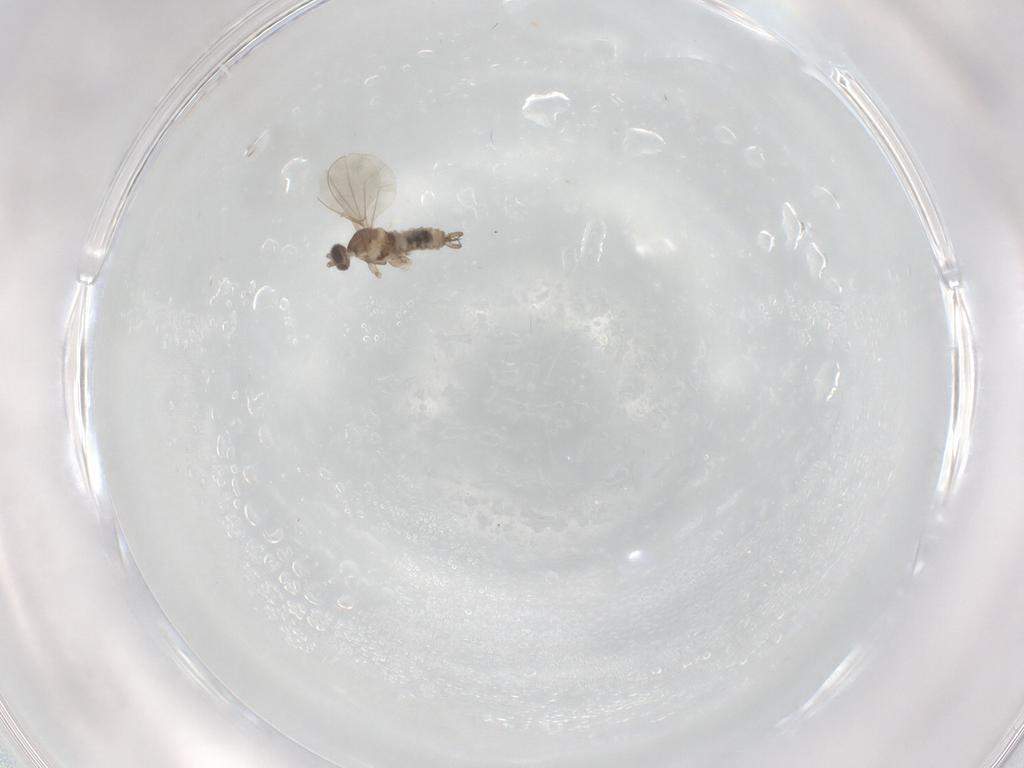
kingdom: Animalia
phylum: Arthropoda
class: Insecta
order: Diptera
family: Cecidomyiidae
